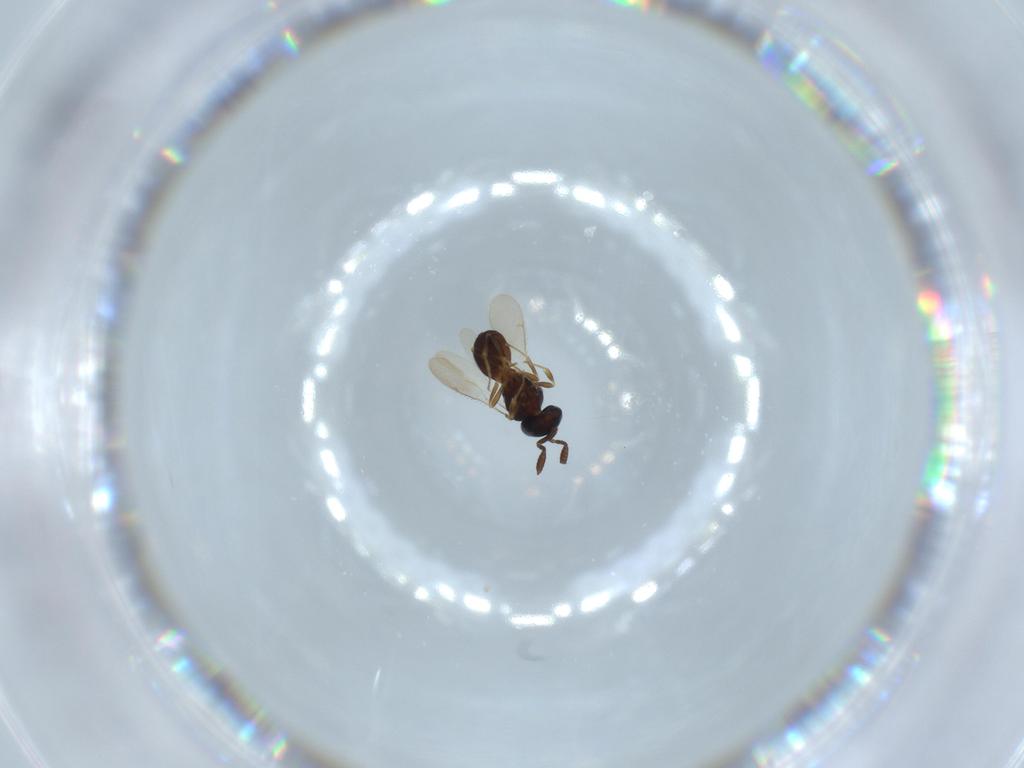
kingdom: Animalia
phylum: Arthropoda
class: Insecta
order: Hymenoptera
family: Scelionidae
